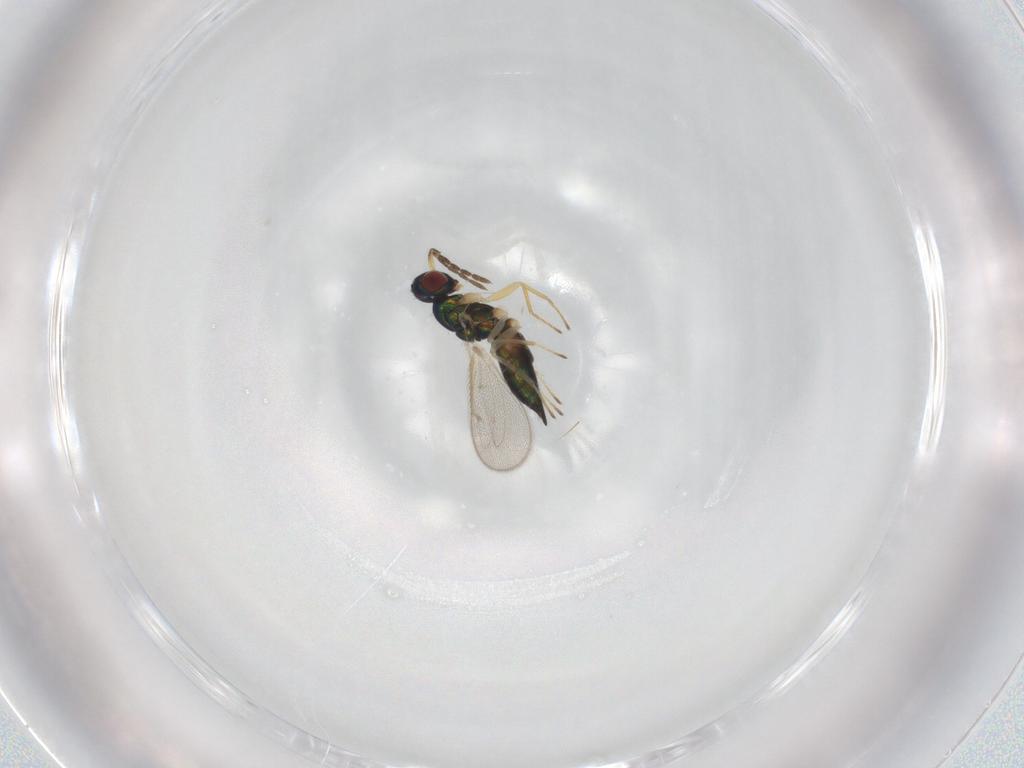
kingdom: Animalia
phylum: Arthropoda
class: Insecta
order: Hymenoptera
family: Eulophidae
